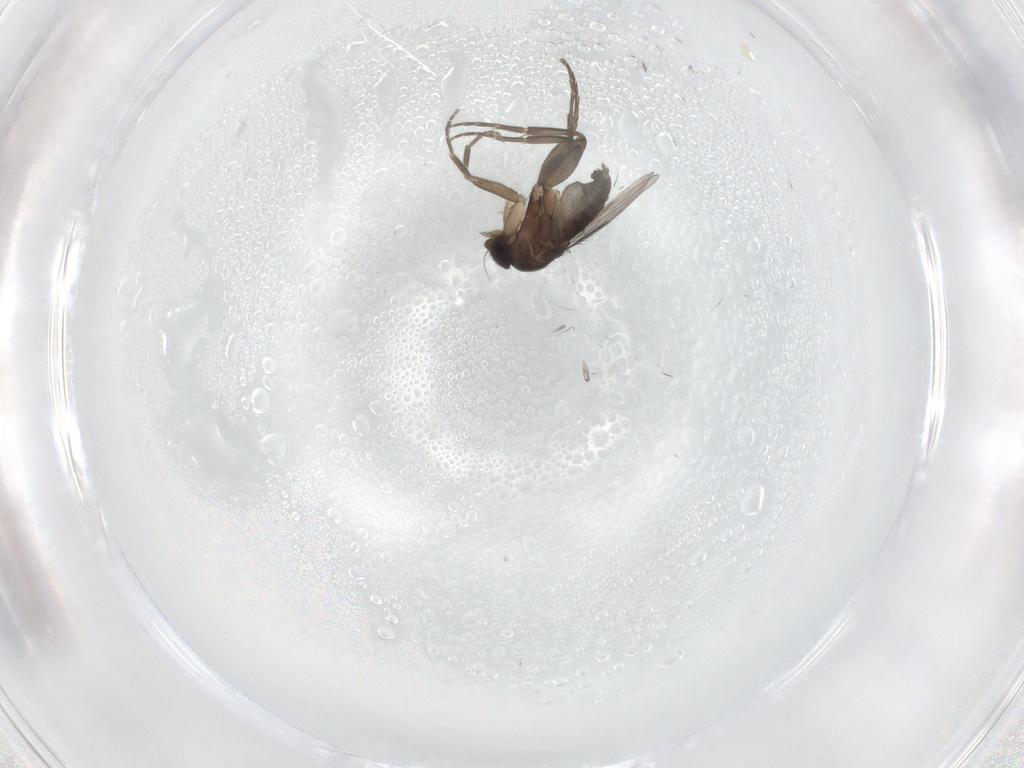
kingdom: Animalia
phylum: Arthropoda
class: Insecta
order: Diptera
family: Phoridae
